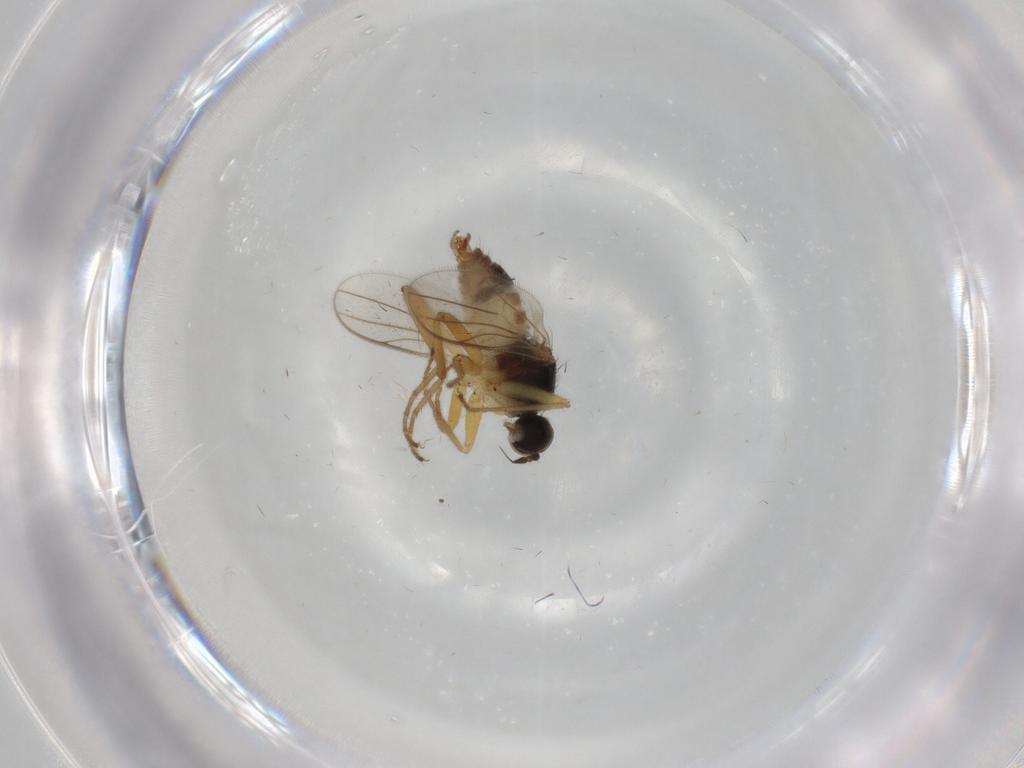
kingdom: Animalia
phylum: Arthropoda
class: Insecta
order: Diptera
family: Hybotidae
